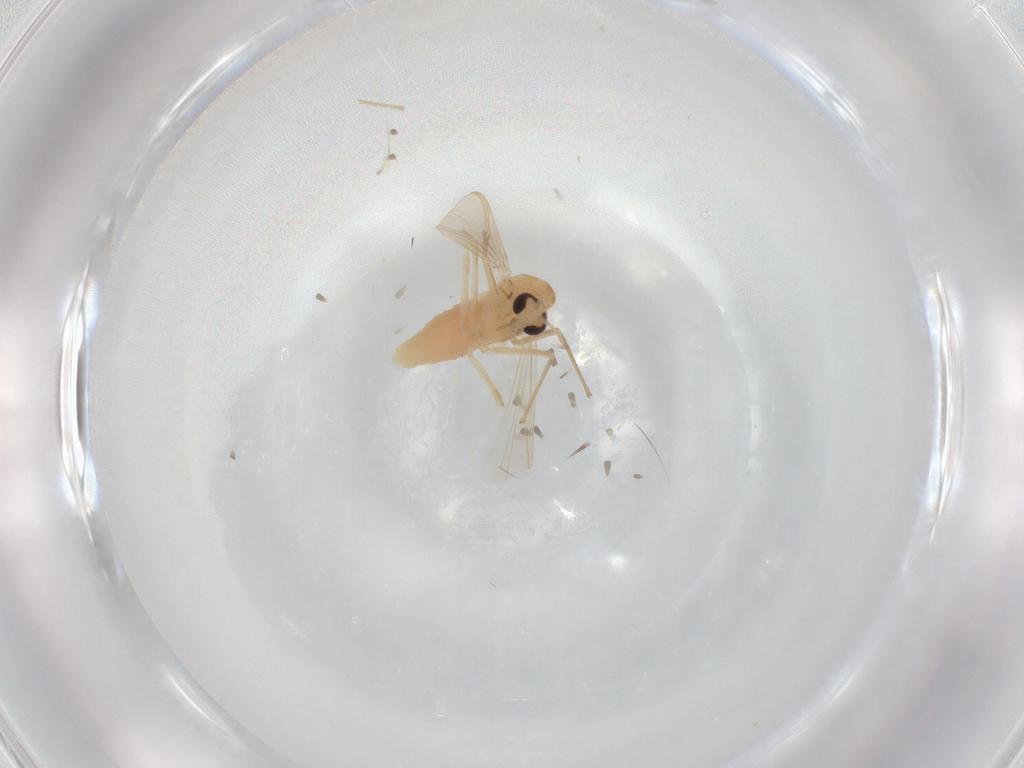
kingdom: Animalia
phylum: Arthropoda
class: Insecta
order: Diptera
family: Chironomidae
